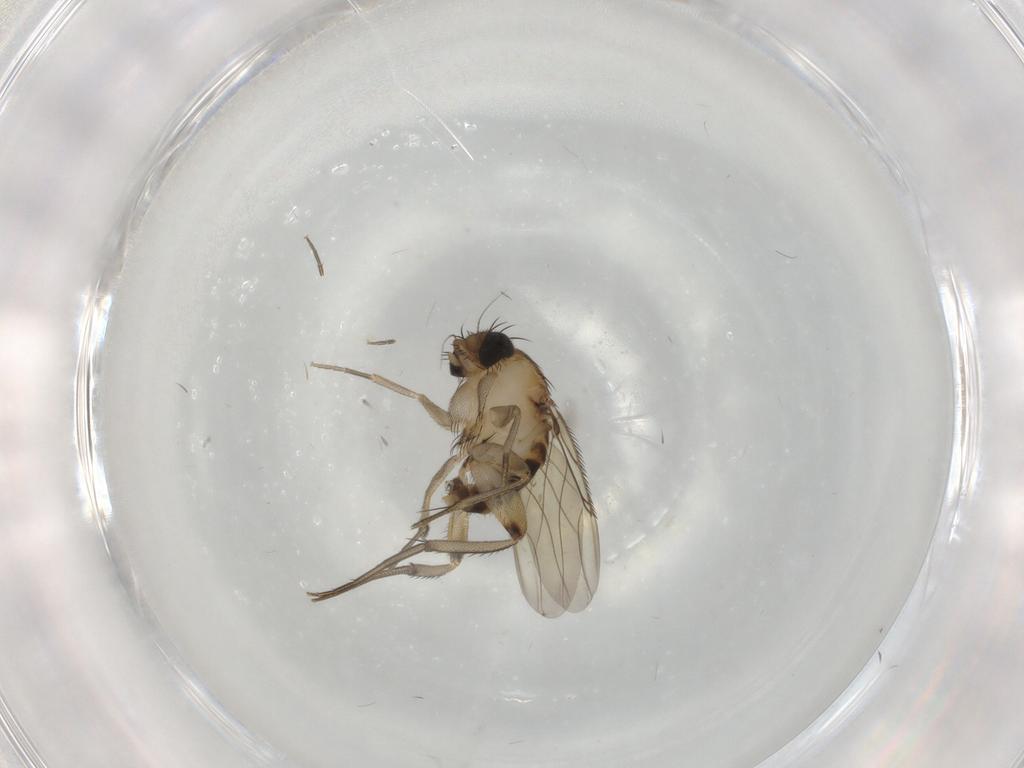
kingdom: Animalia
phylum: Arthropoda
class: Insecta
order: Diptera
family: Phoridae
